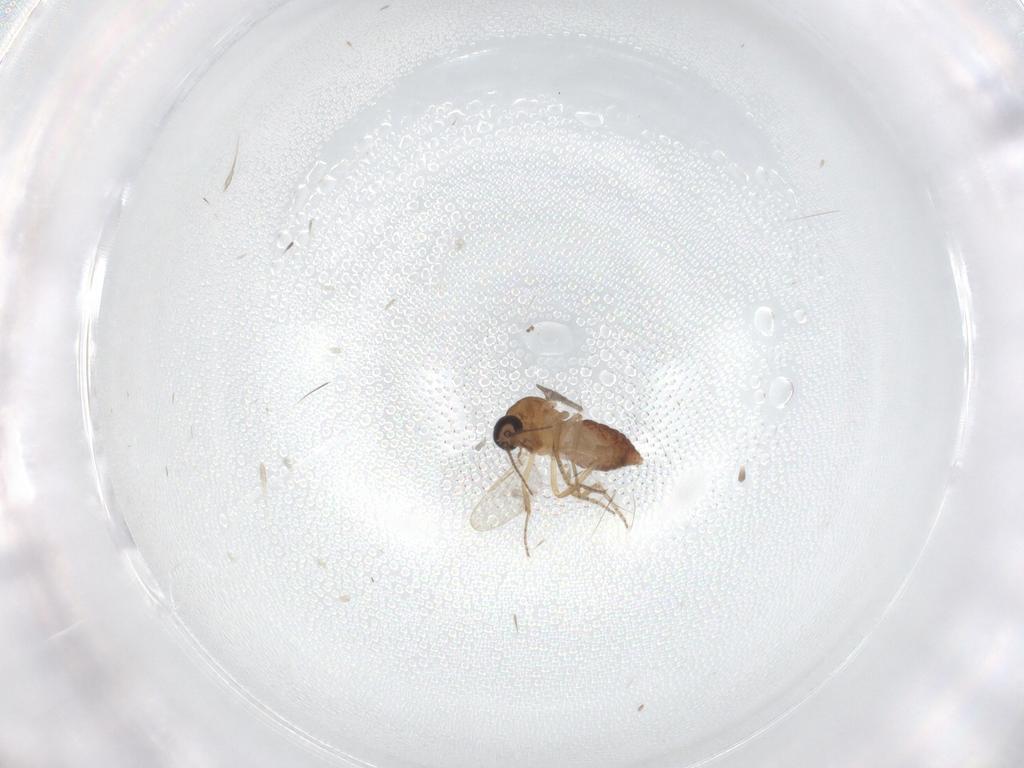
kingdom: Animalia
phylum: Arthropoda
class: Insecta
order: Diptera
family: Ceratopogonidae
